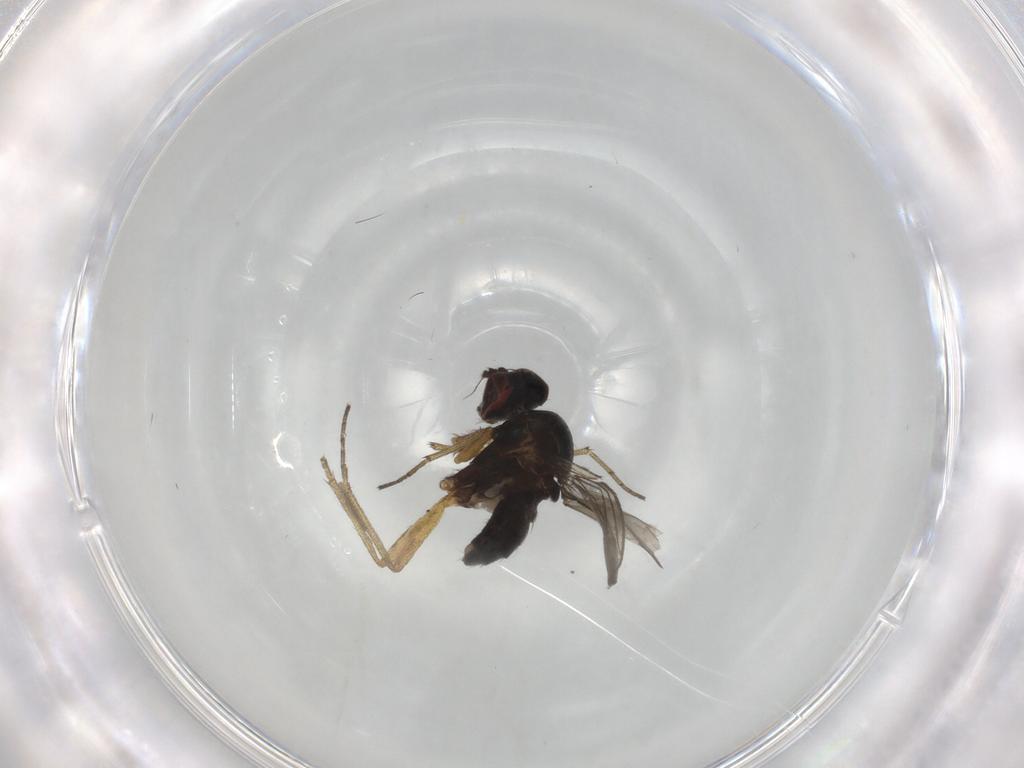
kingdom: Animalia
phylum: Arthropoda
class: Insecta
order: Diptera
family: Dolichopodidae
